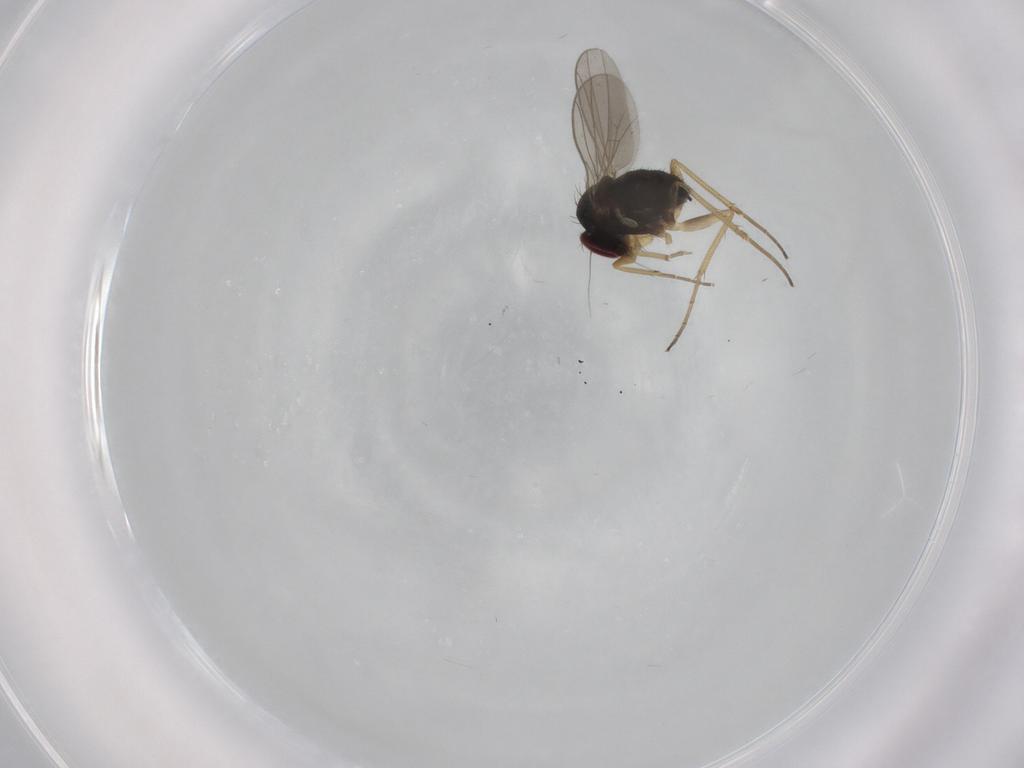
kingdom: Animalia
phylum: Arthropoda
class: Insecta
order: Diptera
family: Dolichopodidae
